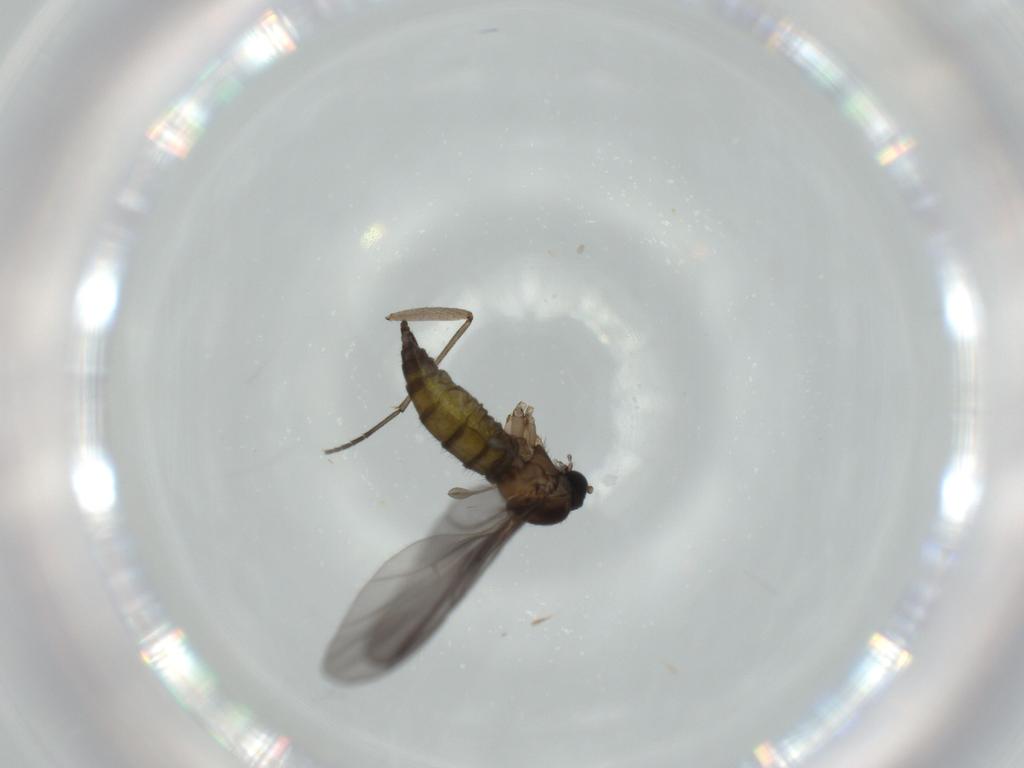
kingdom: Animalia
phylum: Arthropoda
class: Insecta
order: Diptera
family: Sciaridae
